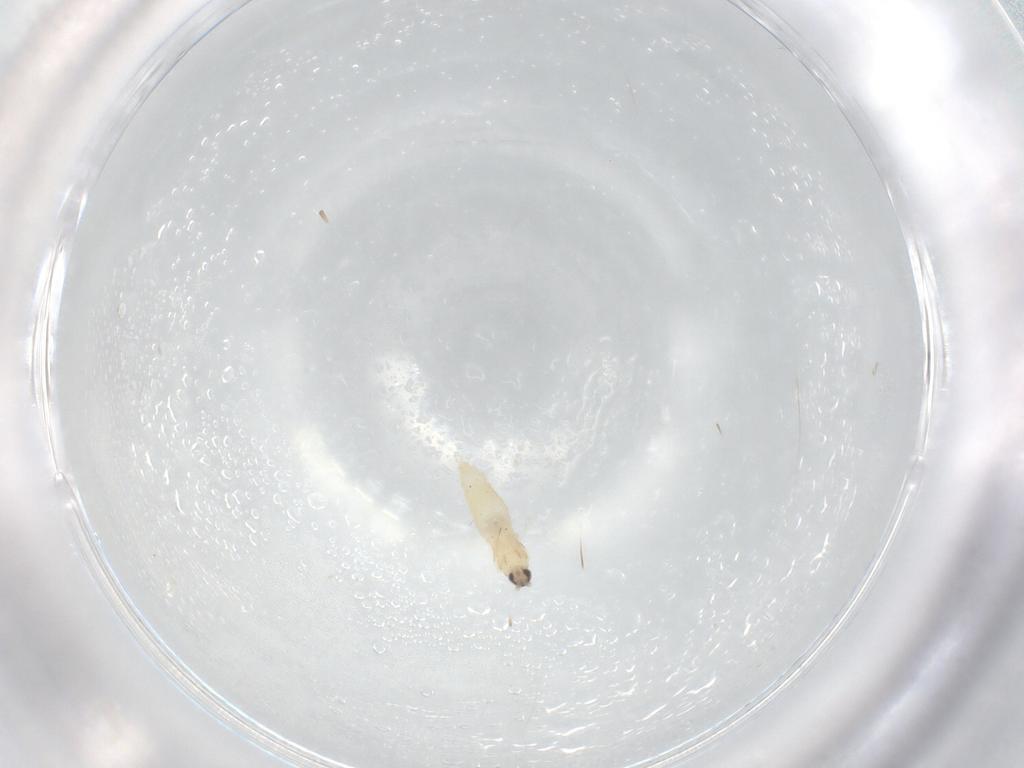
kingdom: Animalia
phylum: Arthropoda
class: Insecta
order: Diptera
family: Cecidomyiidae
